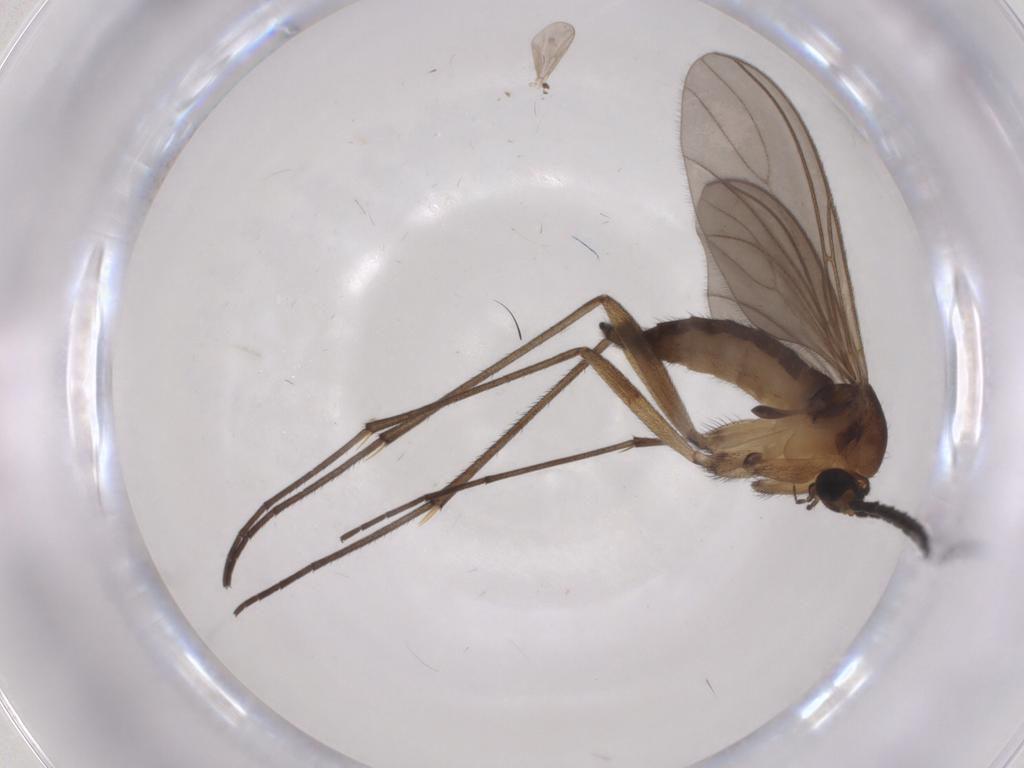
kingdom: Animalia
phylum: Arthropoda
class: Insecta
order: Diptera
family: Sciaridae
